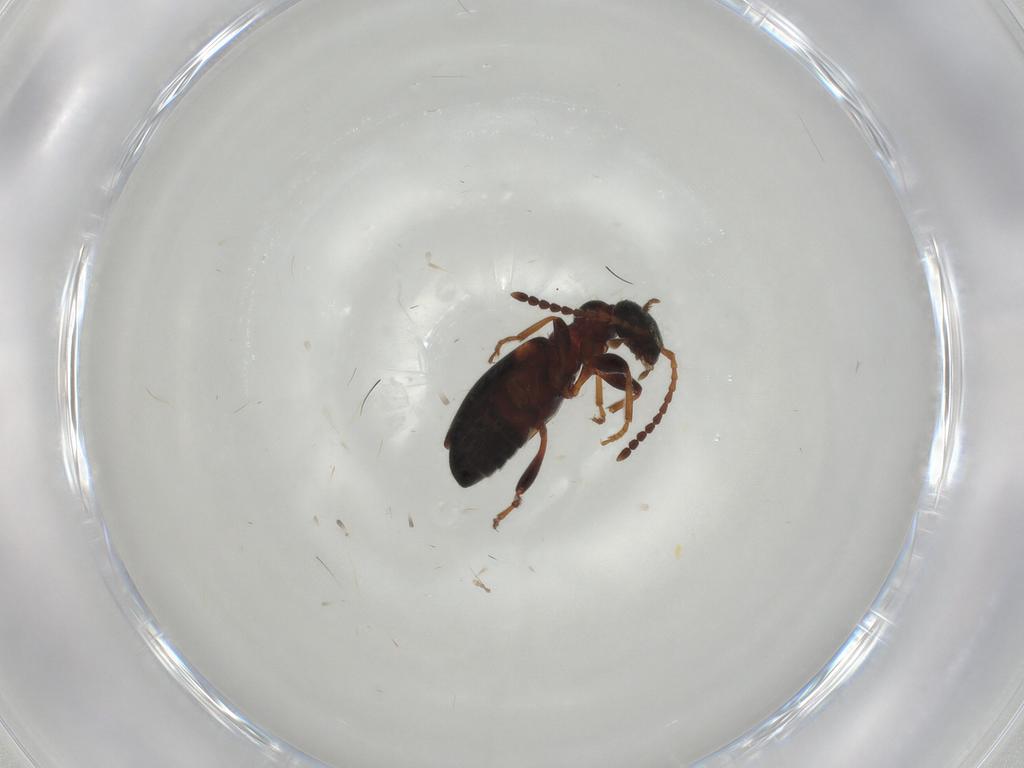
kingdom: Animalia
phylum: Arthropoda
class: Insecta
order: Coleoptera
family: Anthicidae
